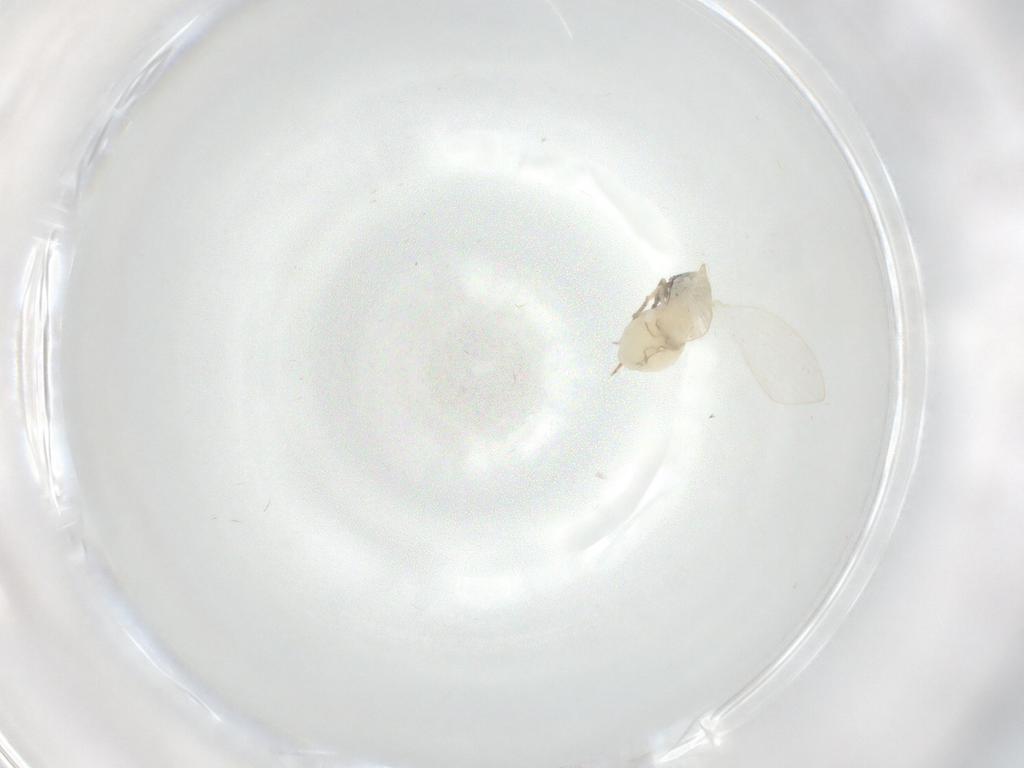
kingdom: Animalia
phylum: Arthropoda
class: Insecta
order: Diptera
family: Psychodidae
